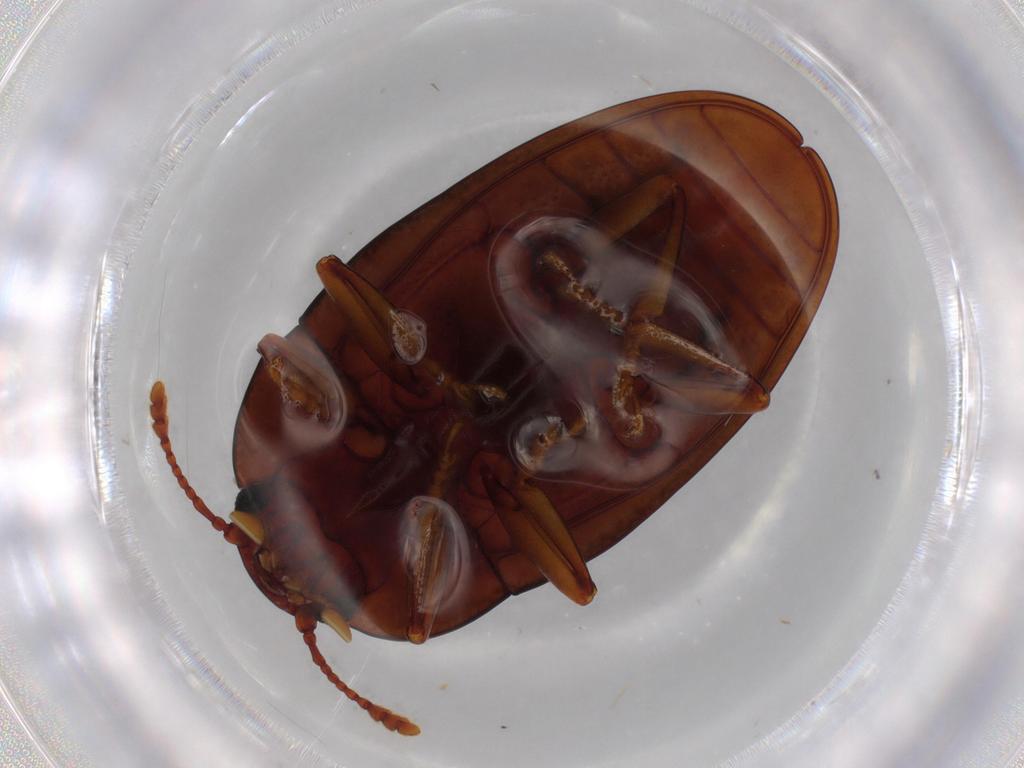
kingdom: Animalia
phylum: Arthropoda
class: Insecta
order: Coleoptera
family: Erotylidae
